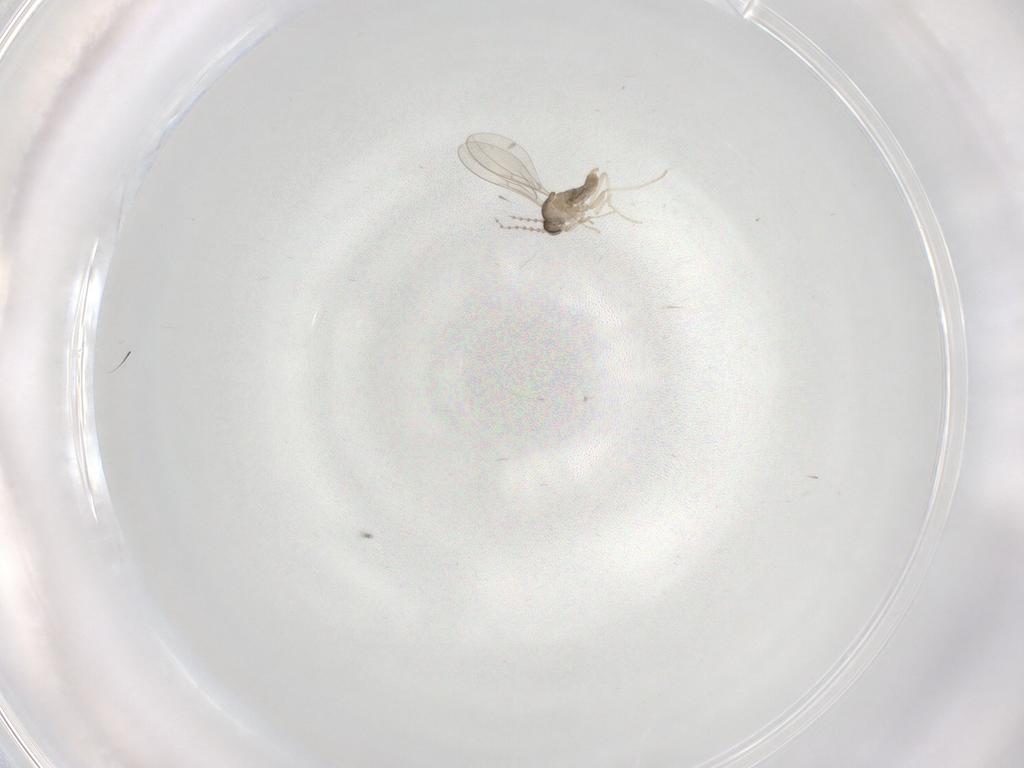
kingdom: Animalia
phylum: Arthropoda
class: Insecta
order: Diptera
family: Cecidomyiidae
